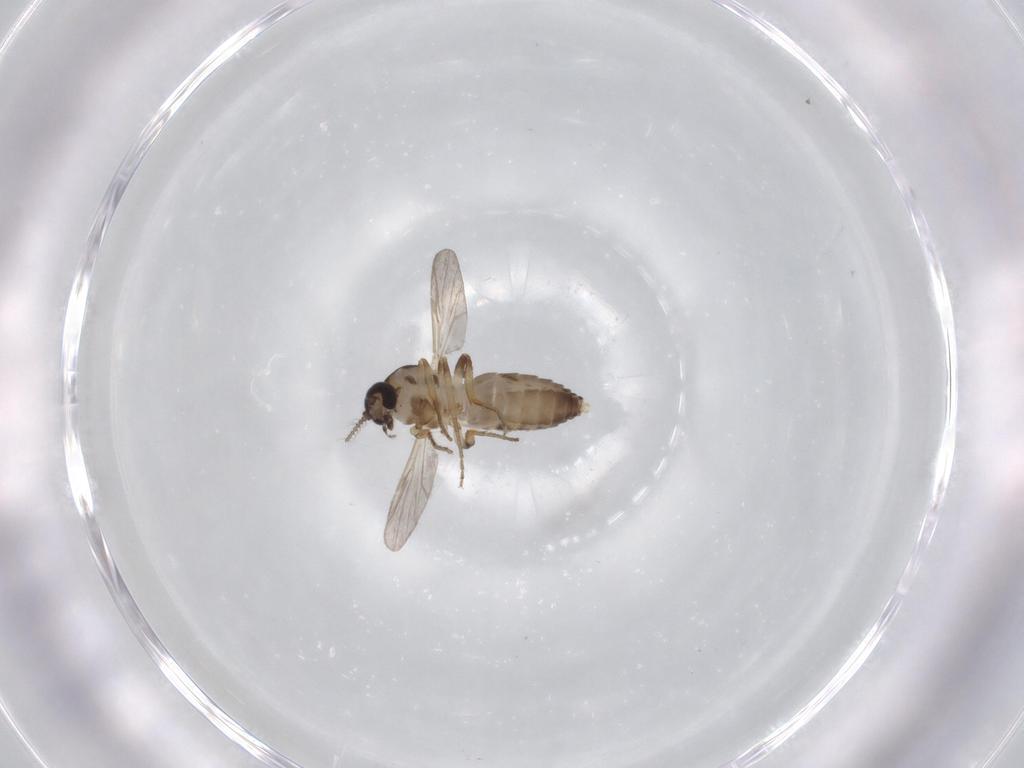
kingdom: Animalia
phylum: Arthropoda
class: Insecta
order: Diptera
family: Ceratopogonidae
